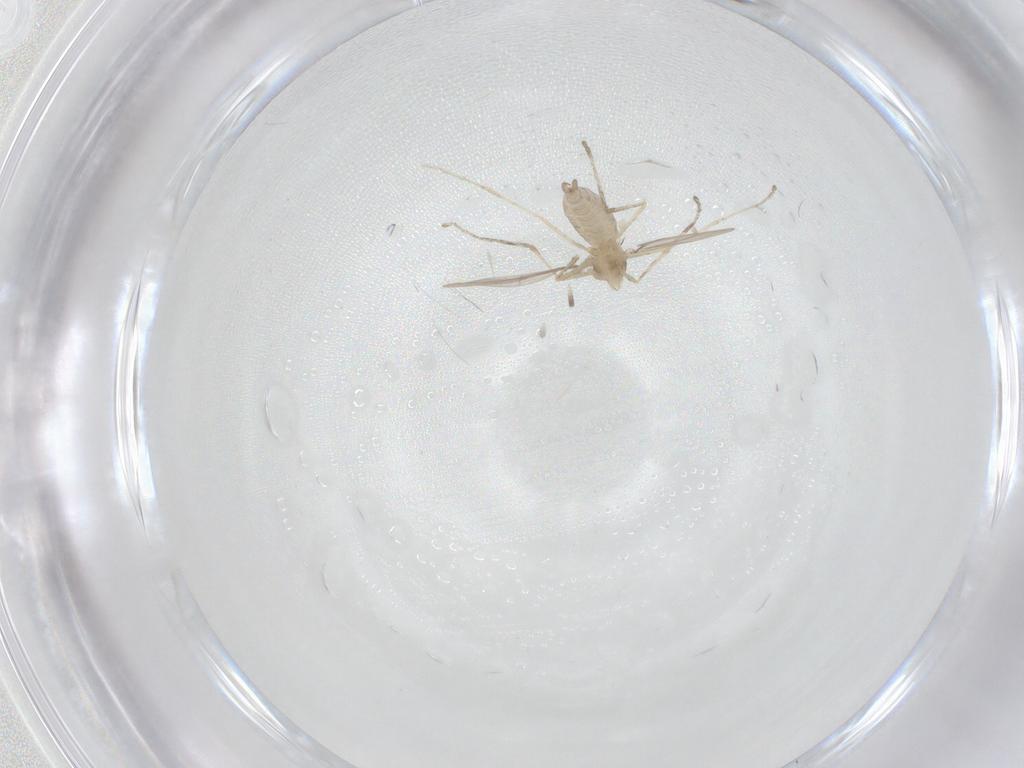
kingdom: Animalia
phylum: Arthropoda
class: Insecta
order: Diptera
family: Cecidomyiidae
